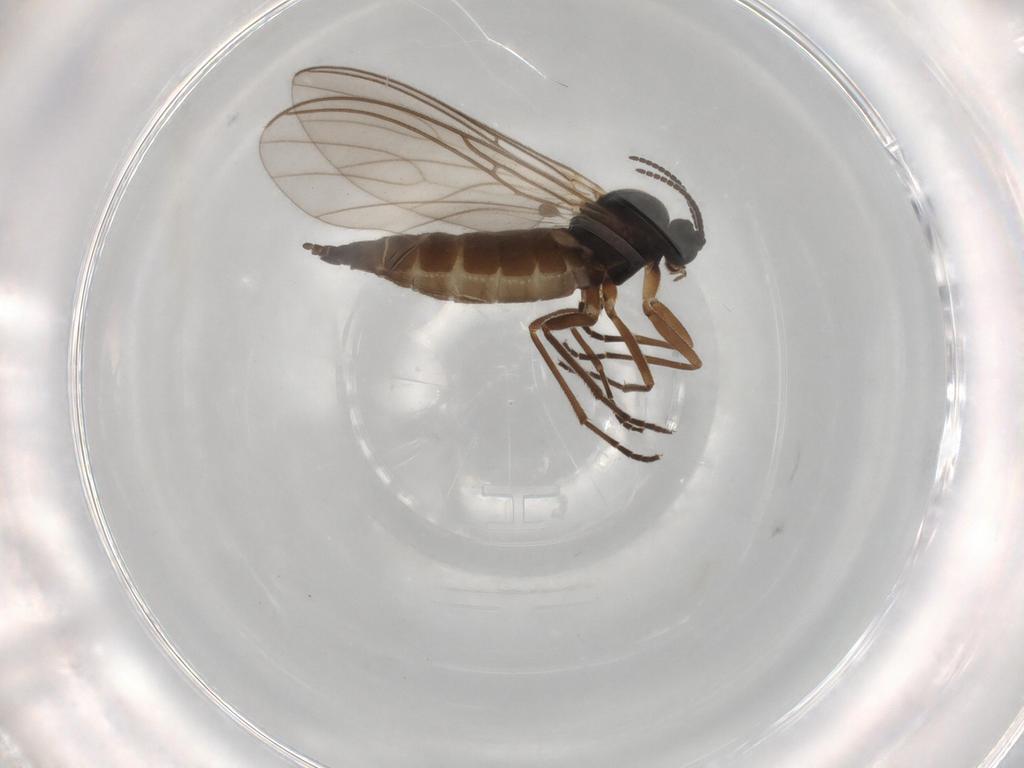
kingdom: Animalia
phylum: Arthropoda
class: Insecta
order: Diptera
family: Sciaridae
